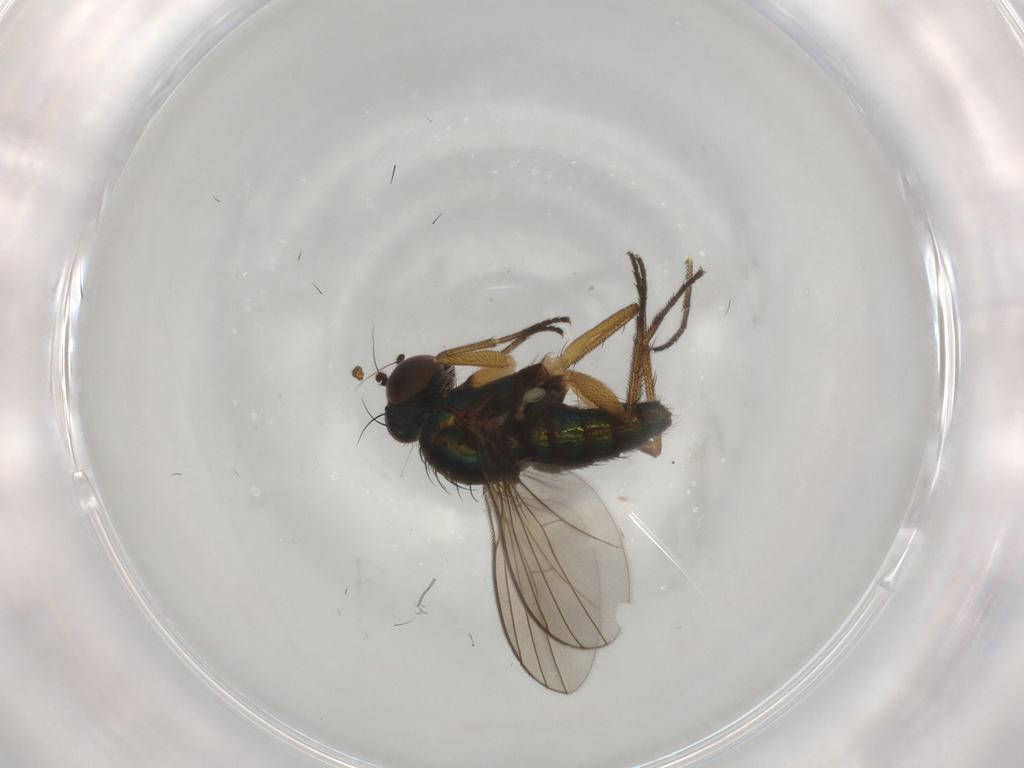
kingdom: Animalia
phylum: Arthropoda
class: Insecta
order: Diptera
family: Dolichopodidae
